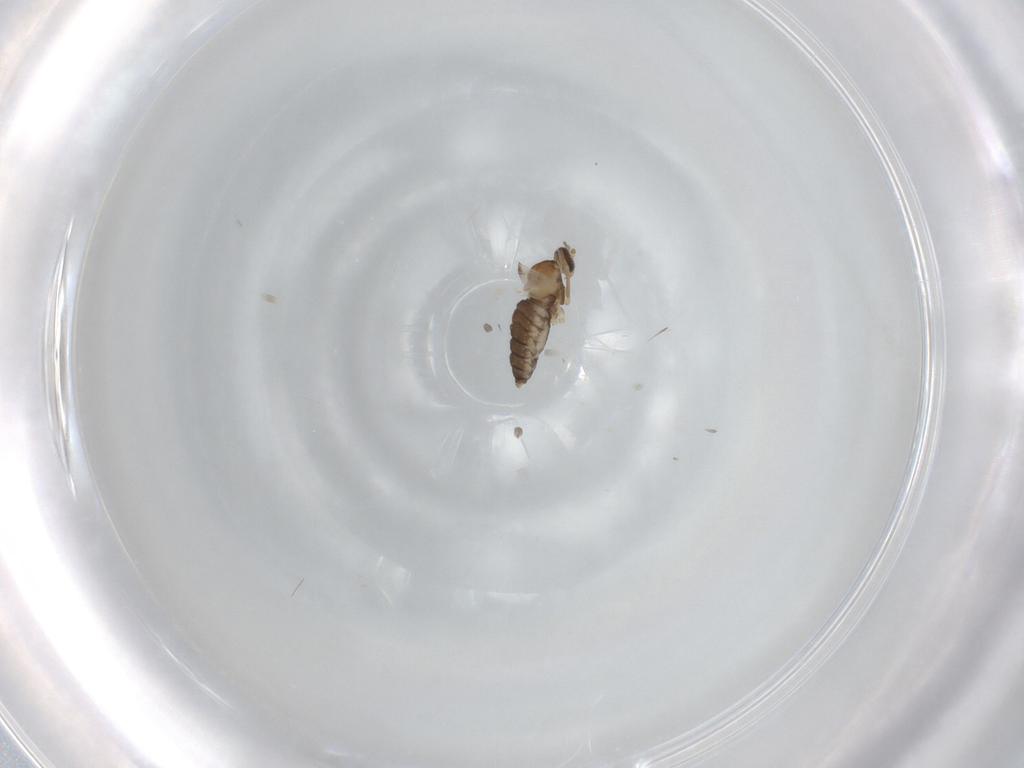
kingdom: Animalia
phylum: Arthropoda
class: Insecta
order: Diptera
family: Cecidomyiidae
